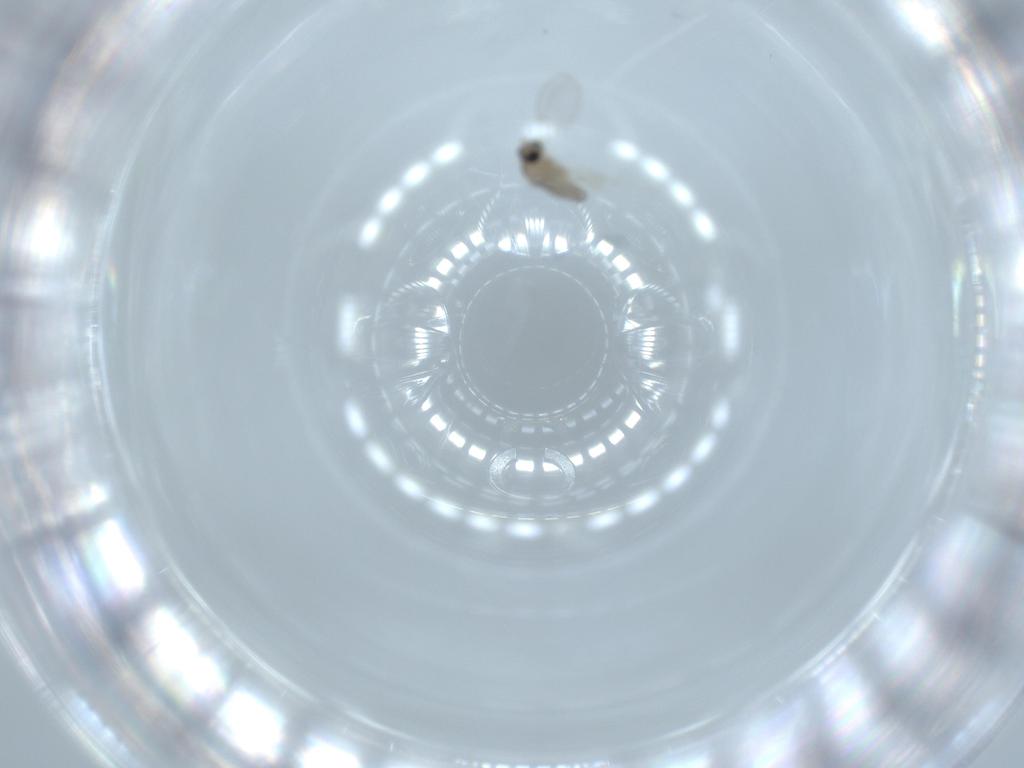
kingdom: Animalia
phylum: Arthropoda
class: Insecta
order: Diptera
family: Cecidomyiidae
